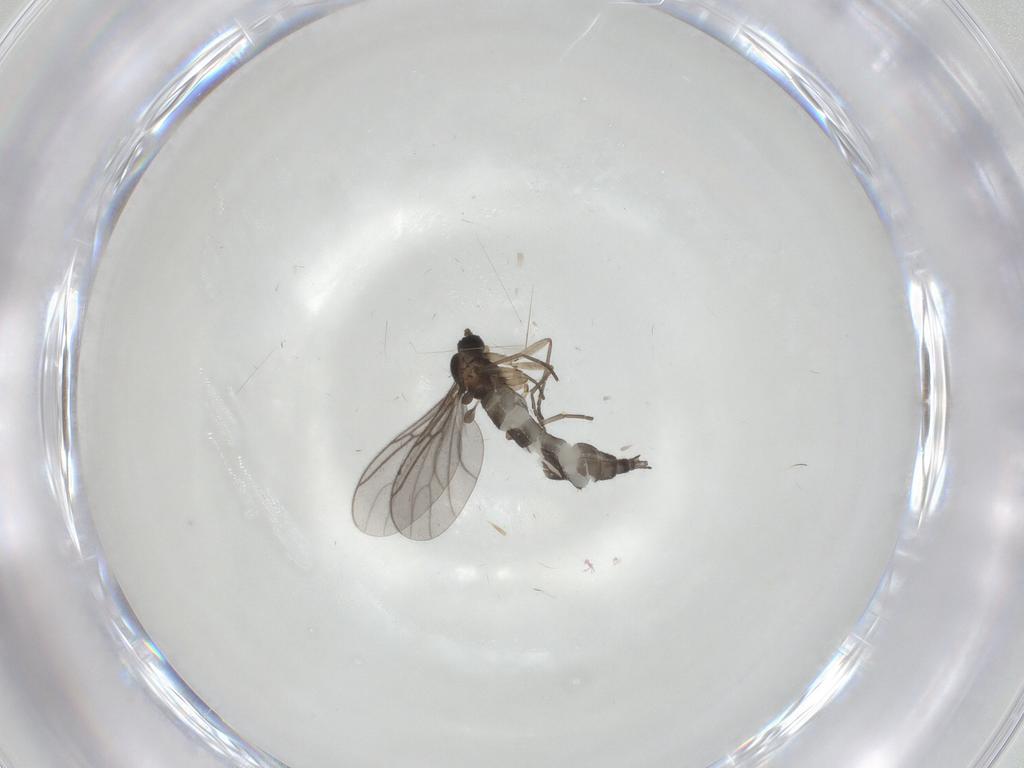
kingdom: Animalia
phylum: Arthropoda
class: Insecta
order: Diptera
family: Sciaridae
